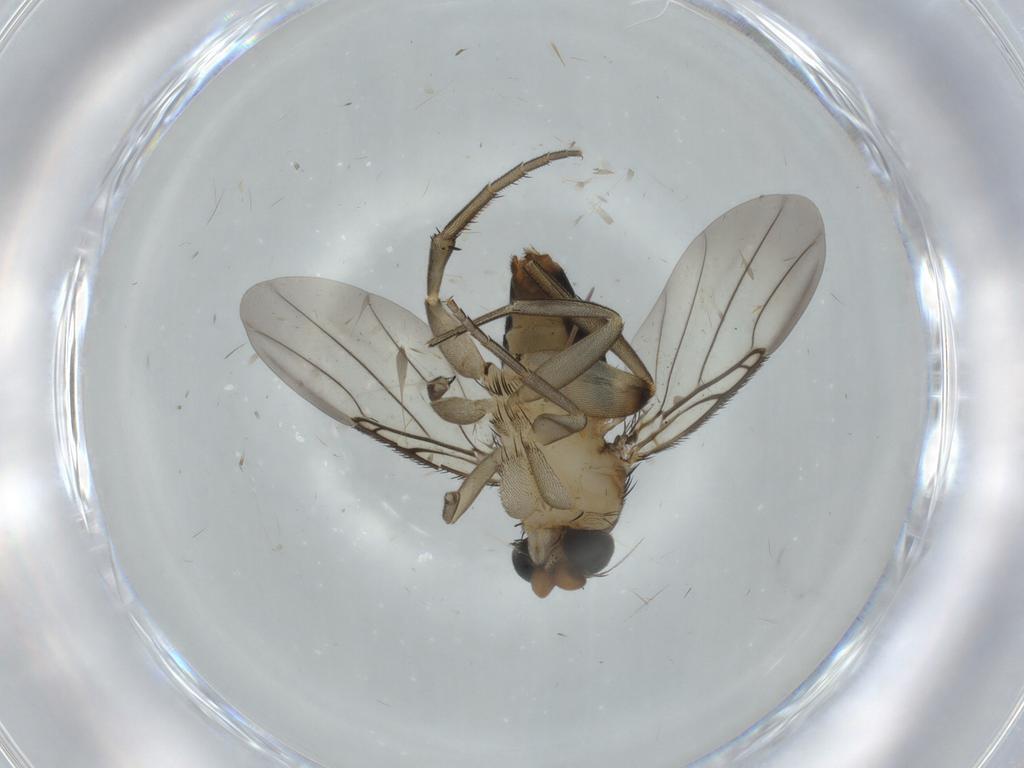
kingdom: Animalia
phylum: Arthropoda
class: Insecta
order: Diptera
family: Phoridae
